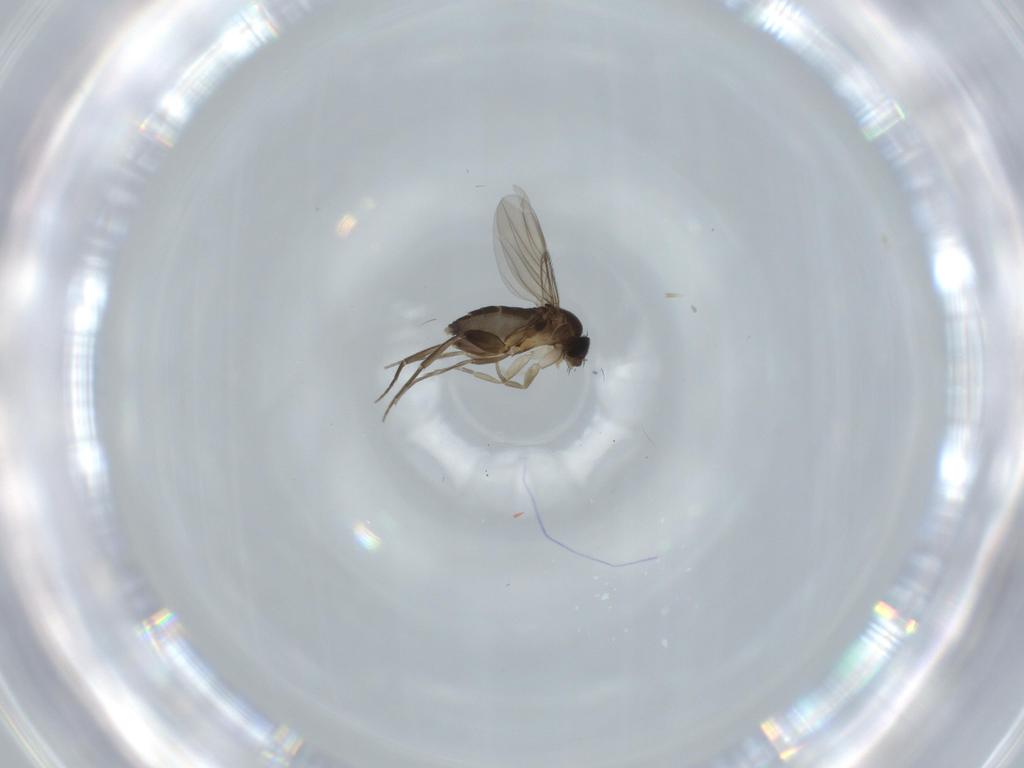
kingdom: Animalia
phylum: Arthropoda
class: Insecta
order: Diptera
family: Phoridae
